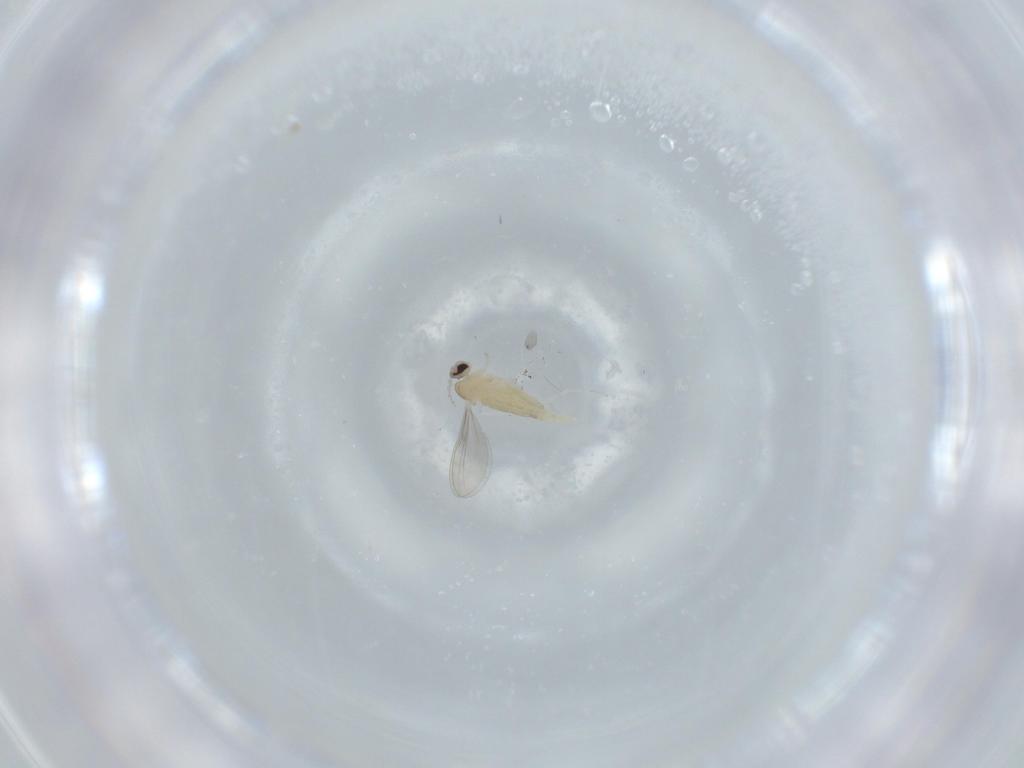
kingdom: Animalia
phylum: Arthropoda
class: Insecta
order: Diptera
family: Cecidomyiidae
